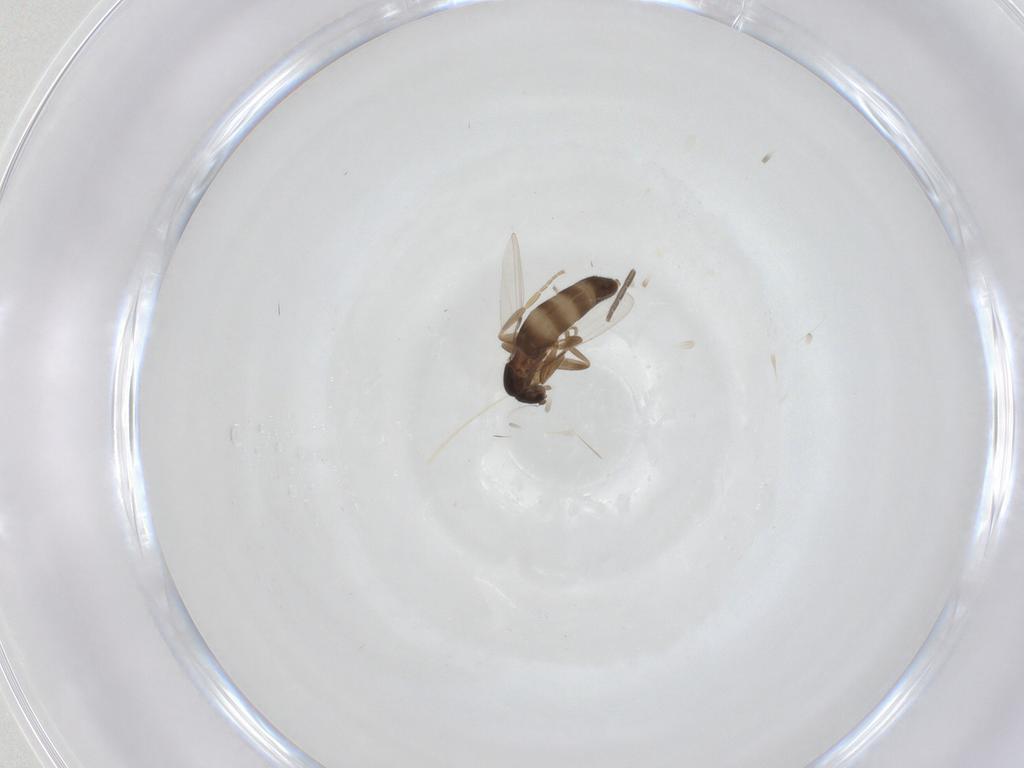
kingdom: Animalia
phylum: Arthropoda
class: Insecta
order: Diptera
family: Sciaridae
